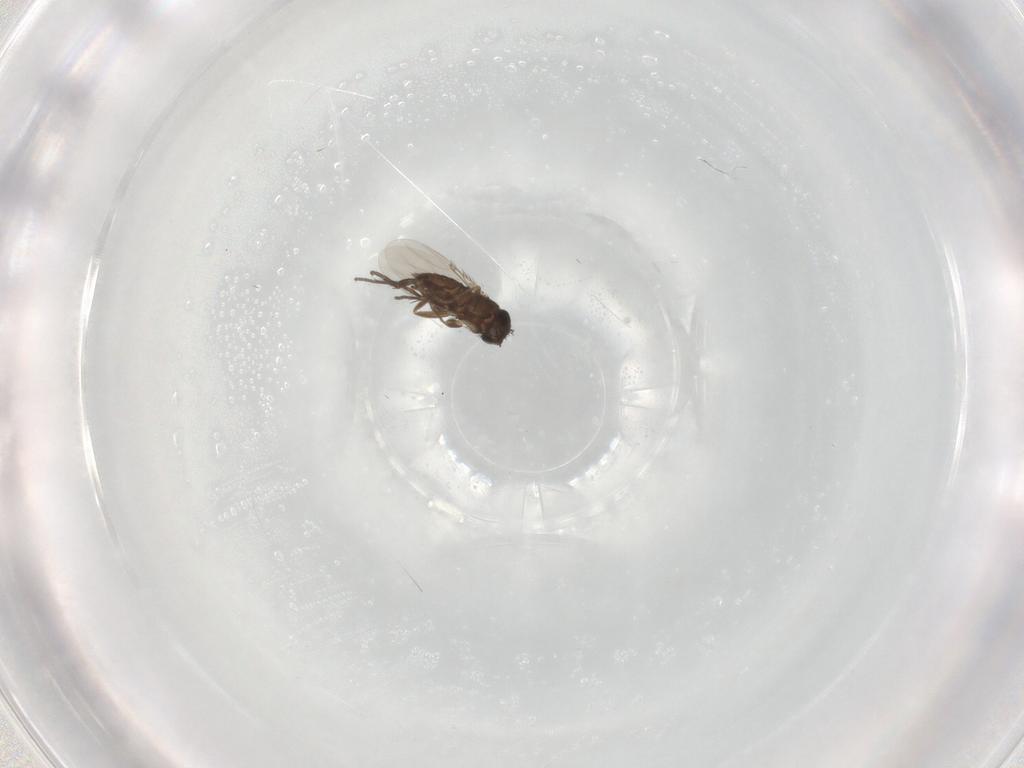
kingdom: Animalia
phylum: Arthropoda
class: Insecta
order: Diptera
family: Phoridae
